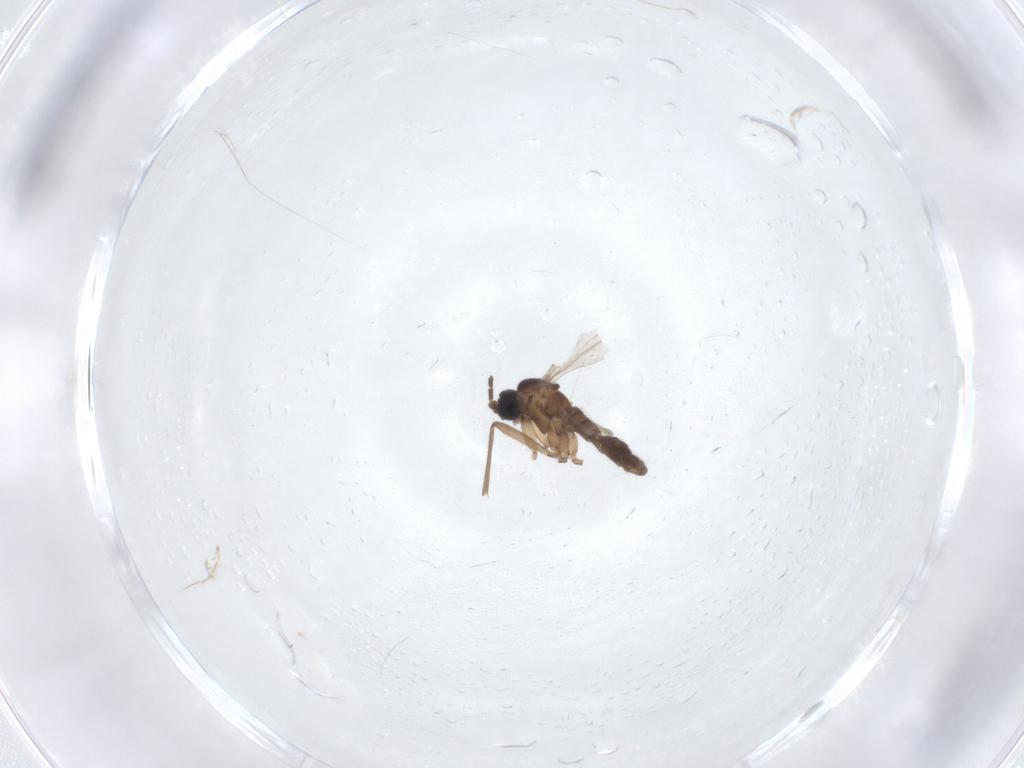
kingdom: Animalia
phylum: Arthropoda
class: Insecta
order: Diptera
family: Sciaridae
